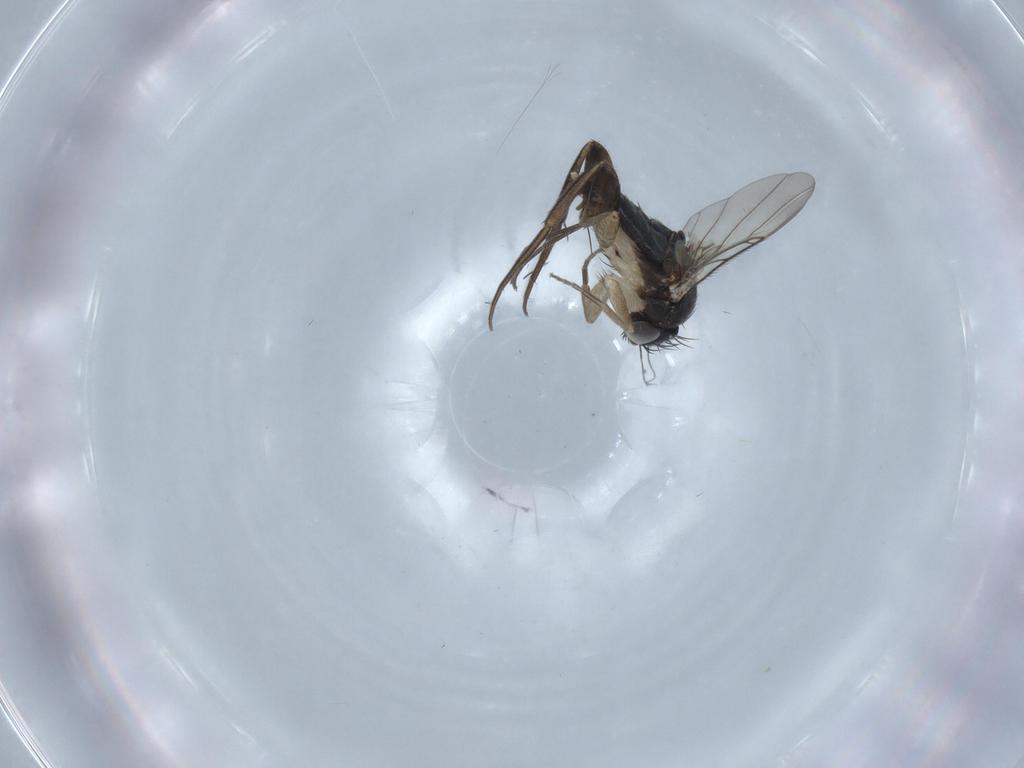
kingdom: Animalia
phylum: Arthropoda
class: Insecta
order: Diptera
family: Phoridae
